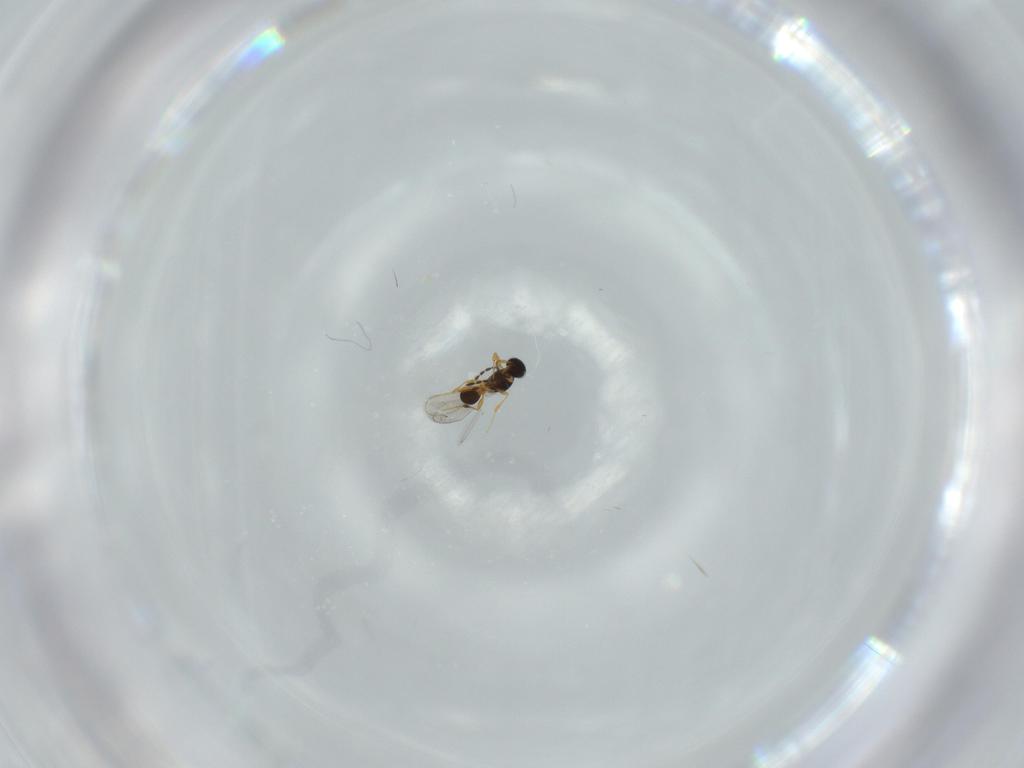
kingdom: Animalia
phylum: Arthropoda
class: Insecta
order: Hymenoptera
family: Platygastridae
